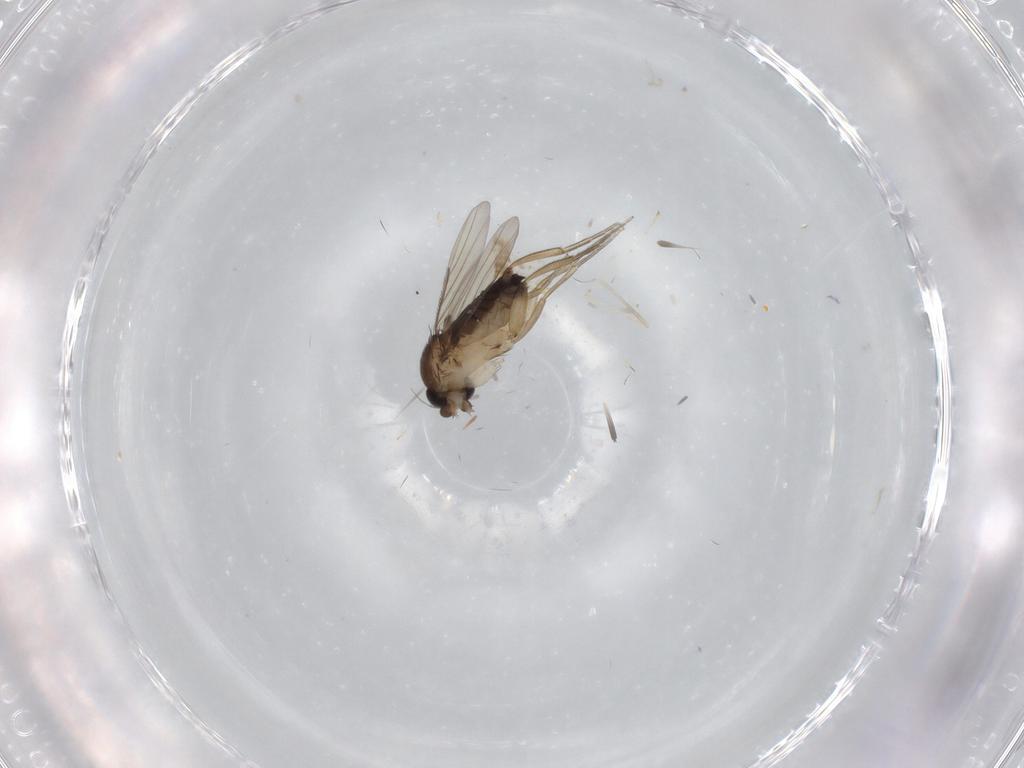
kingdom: Animalia
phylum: Arthropoda
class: Insecta
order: Diptera
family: Phoridae
